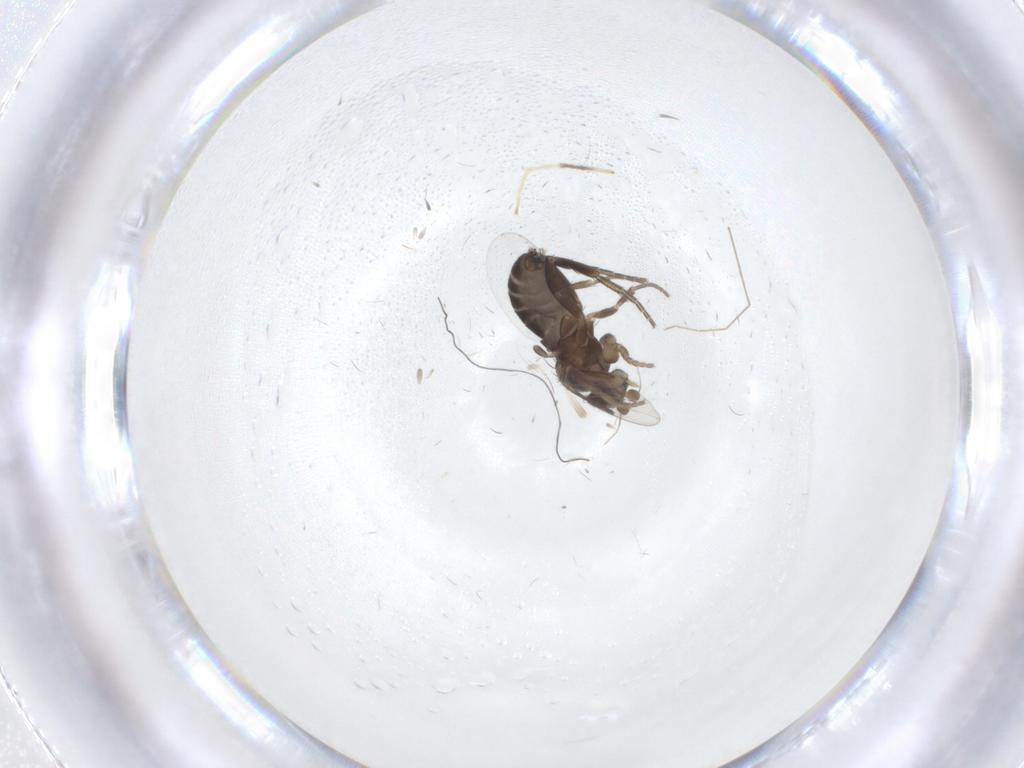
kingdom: Animalia
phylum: Arthropoda
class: Insecta
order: Diptera
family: Phoridae
